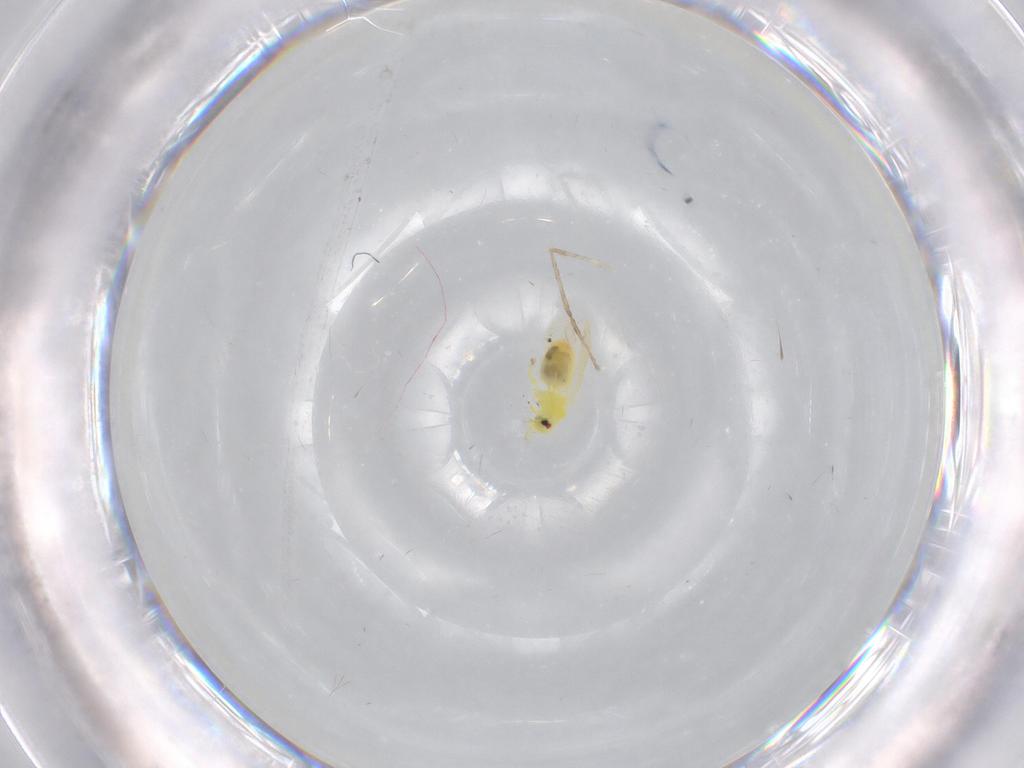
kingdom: Animalia
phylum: Arthropoda
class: Insecta
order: Hemiptera
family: Aleyrodidae
